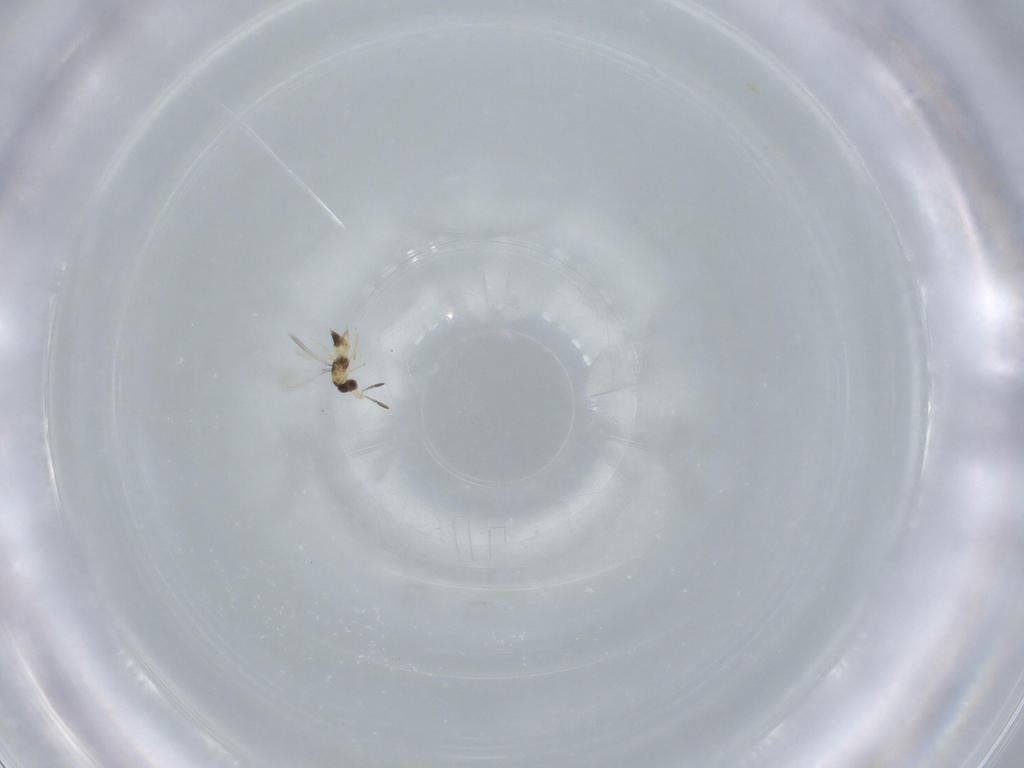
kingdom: Animalia
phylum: Arthropoda
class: Insecta
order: Hymenoptera
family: Mymaridae
